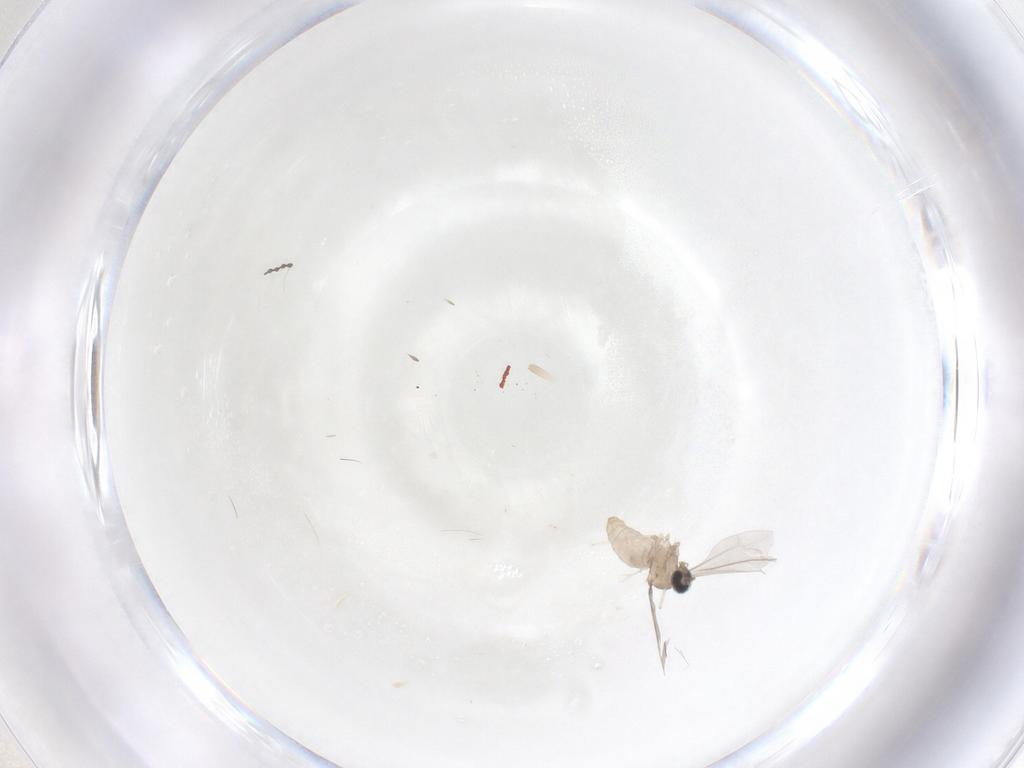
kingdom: Animalia
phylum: Arthropoda
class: Insecta
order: Diptera
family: Cecidomyiidae
